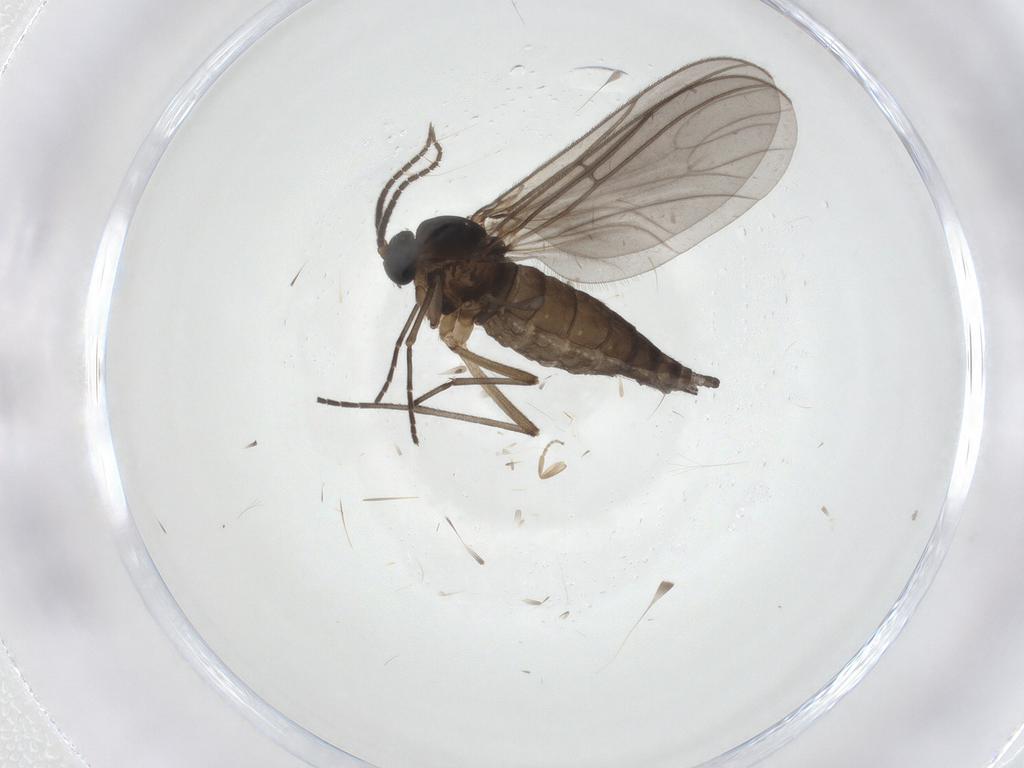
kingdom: Animalia
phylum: Arthropoda
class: Insecta
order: Diptera
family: Sciaridae
